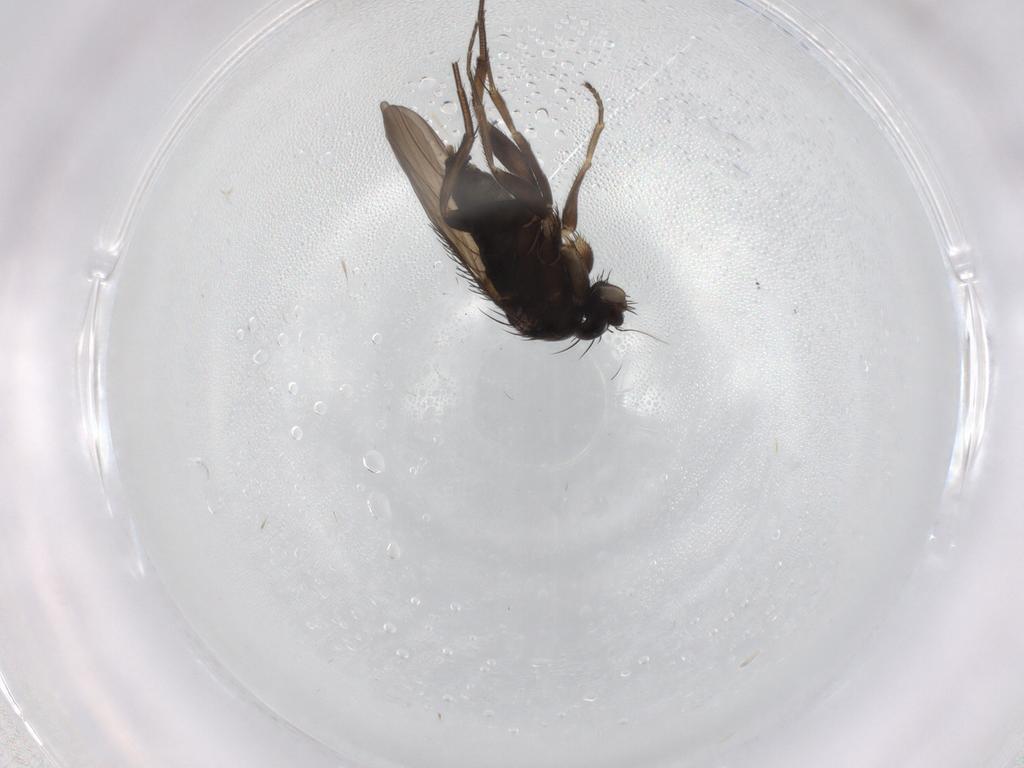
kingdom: Animalia
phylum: Arthropoda
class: Insecta
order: Diptera
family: Phoridae
